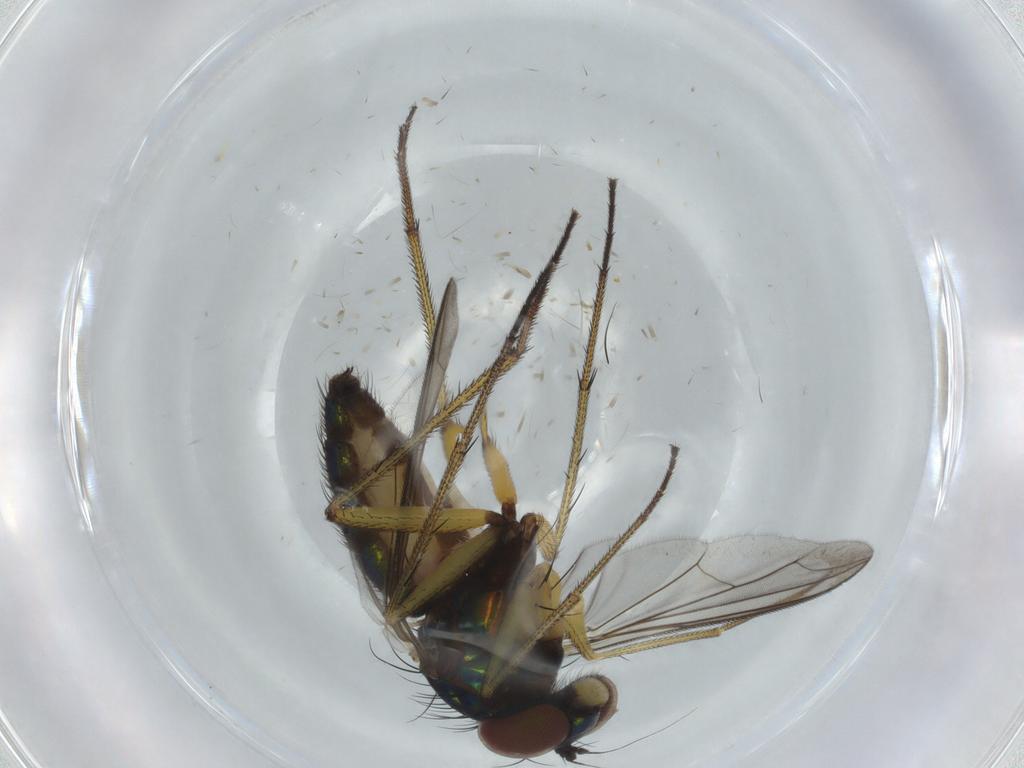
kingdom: Animalia
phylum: Arthropoda
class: Insecta
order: Diptera
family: Dolichopodidae
